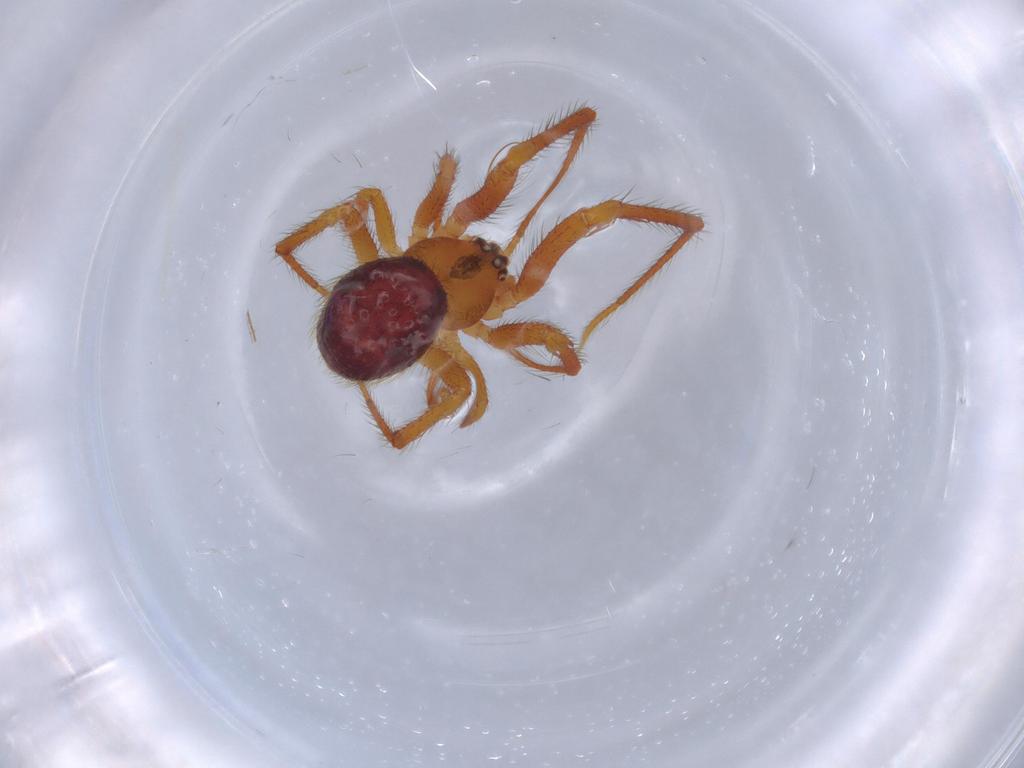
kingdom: Animalia
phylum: Arthropoda
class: Arachnida
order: Araneae
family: Theridiidae
